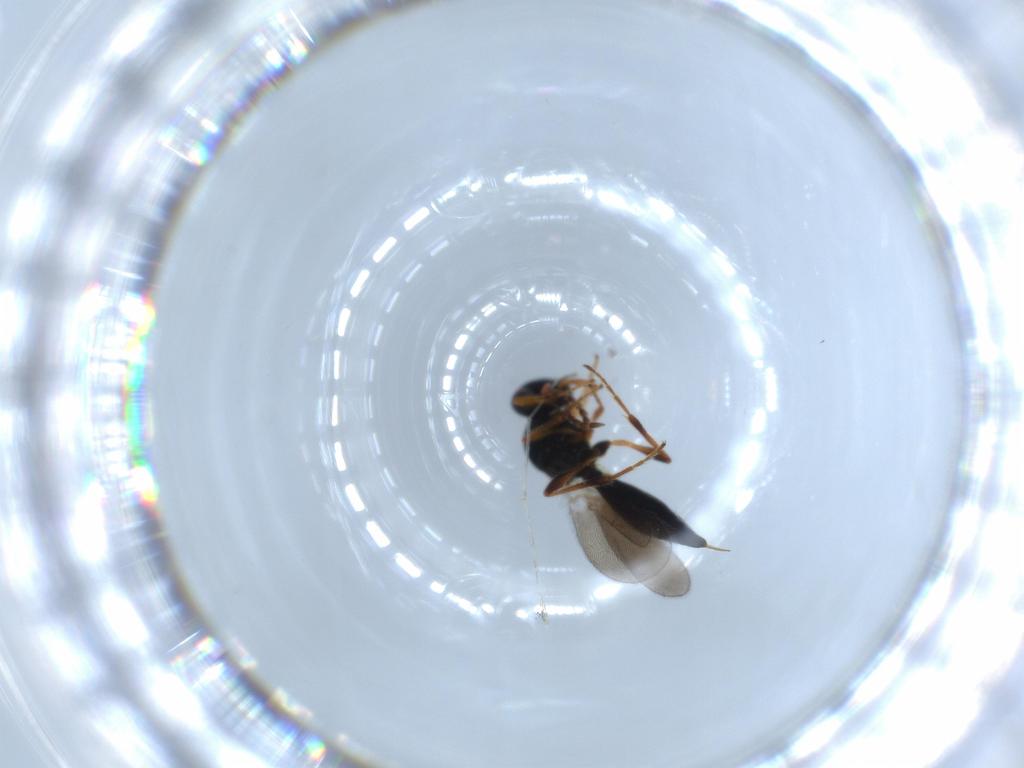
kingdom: Animalia
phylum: Arthropoda
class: Insecta
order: Hymenoptera
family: Platygastridae
